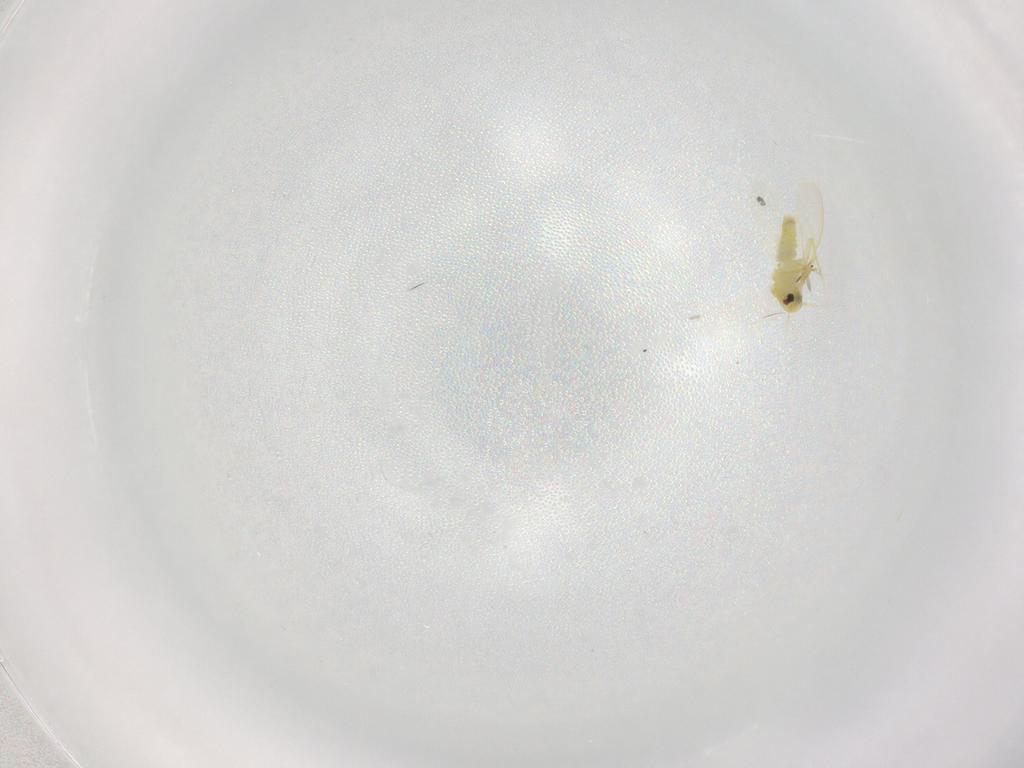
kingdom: Animalia
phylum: Arthropoda
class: Insecta
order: Hemiptera
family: Aleyrodidae
